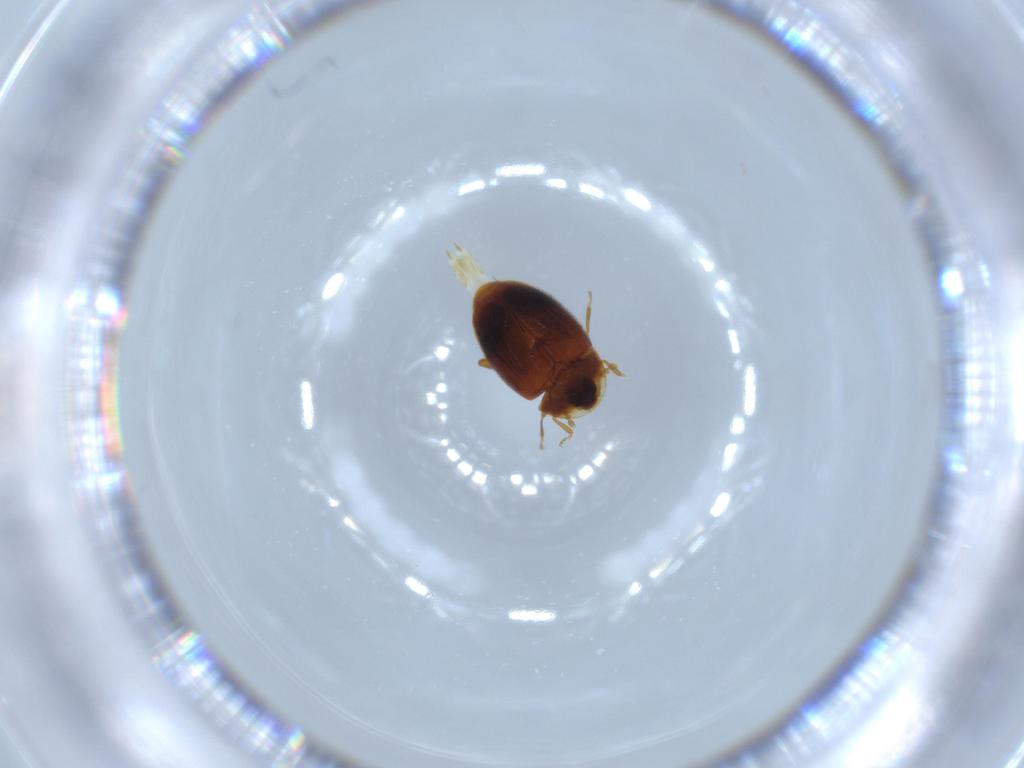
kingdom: Animalia
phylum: Arthropoda
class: Insecta
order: Coleoptera
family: Corylophidae
